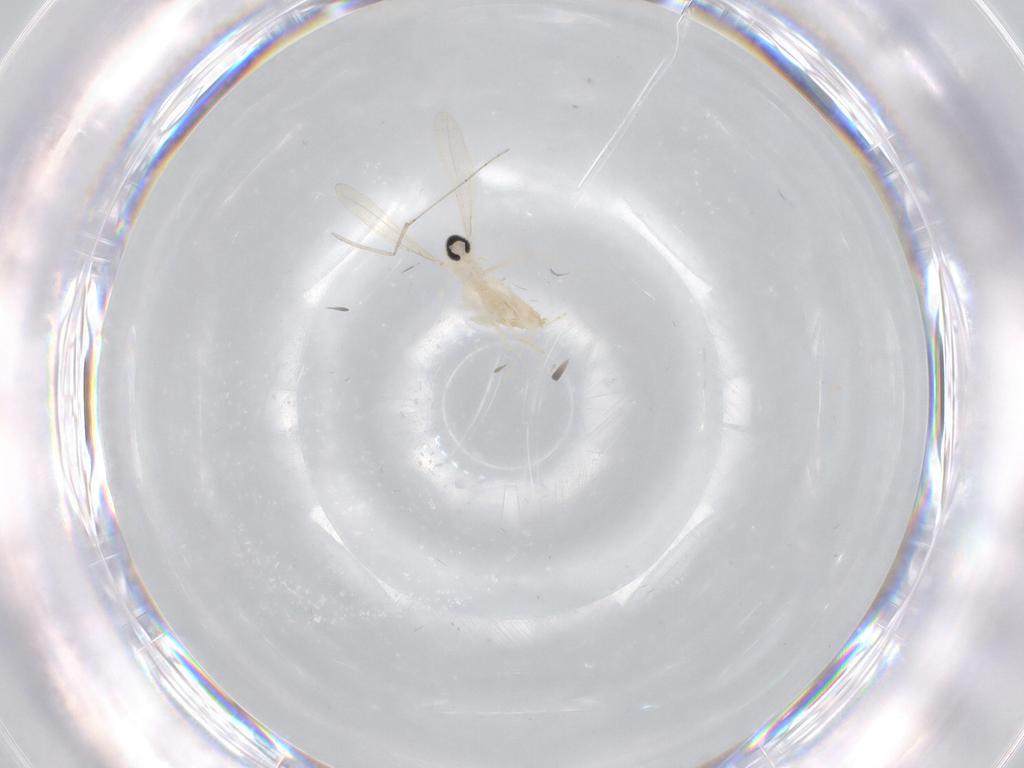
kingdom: Animalia
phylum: Arthropoda
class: Insecta
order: Diptera
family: Cecidomyiidae
